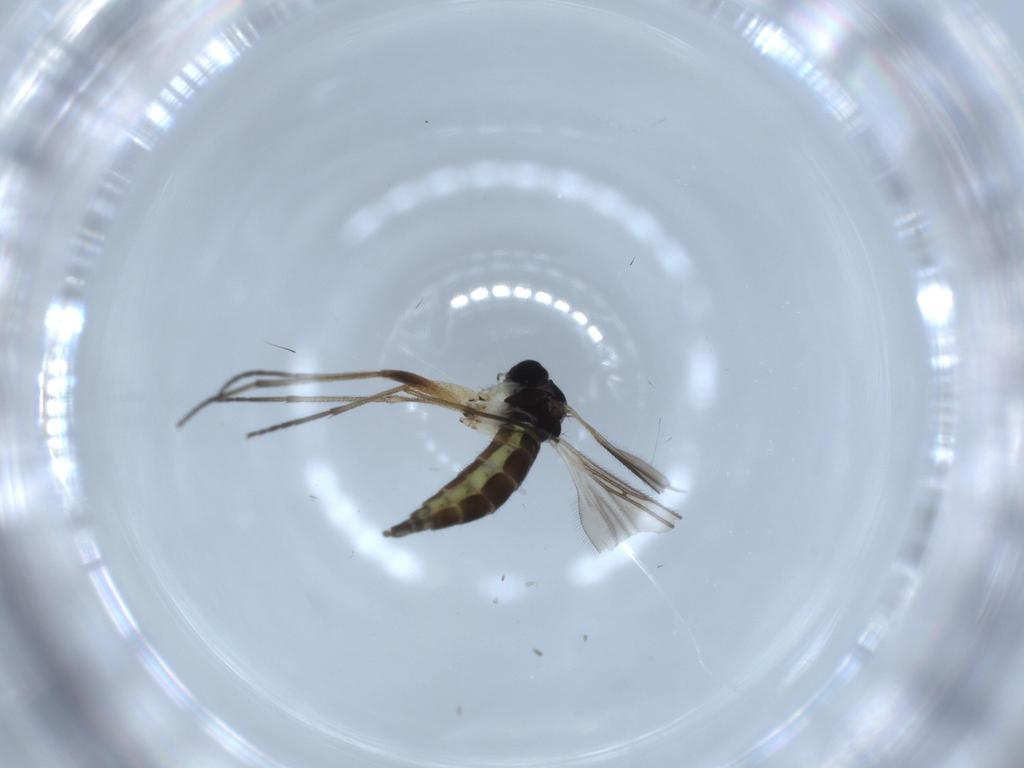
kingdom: Animalia
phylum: Arthropoda
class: Insecta
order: Diptera
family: Sciaridae
